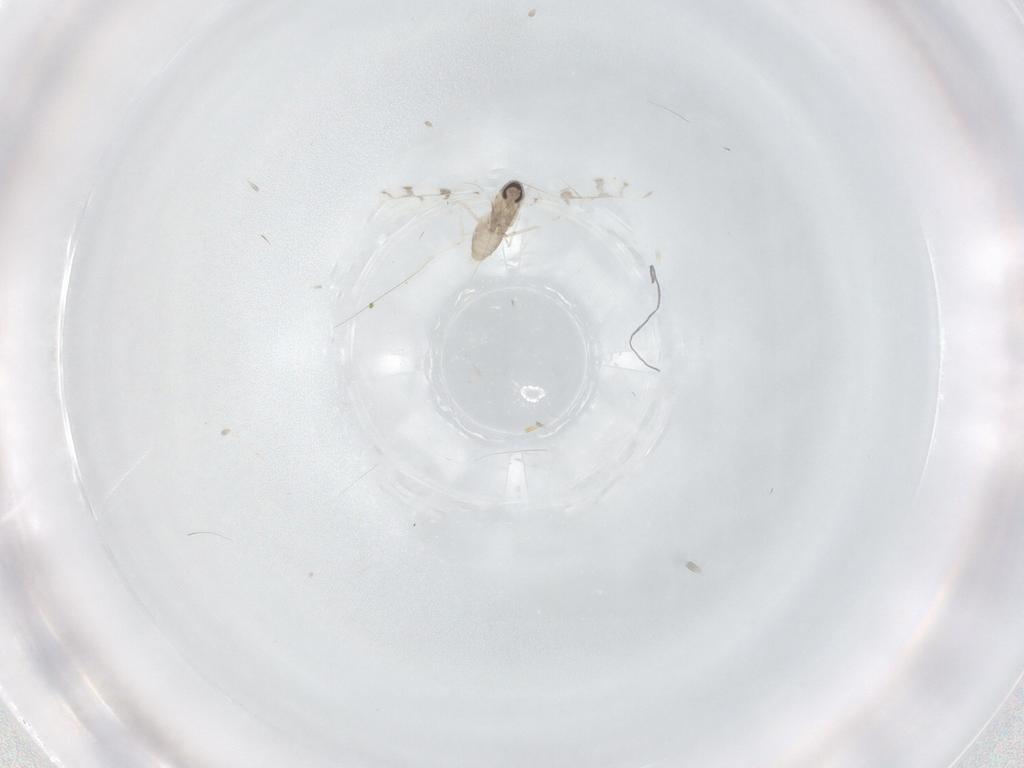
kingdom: Animalia
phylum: Arthropoda
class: Insecta
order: Diptera
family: Cecidomyiidae
